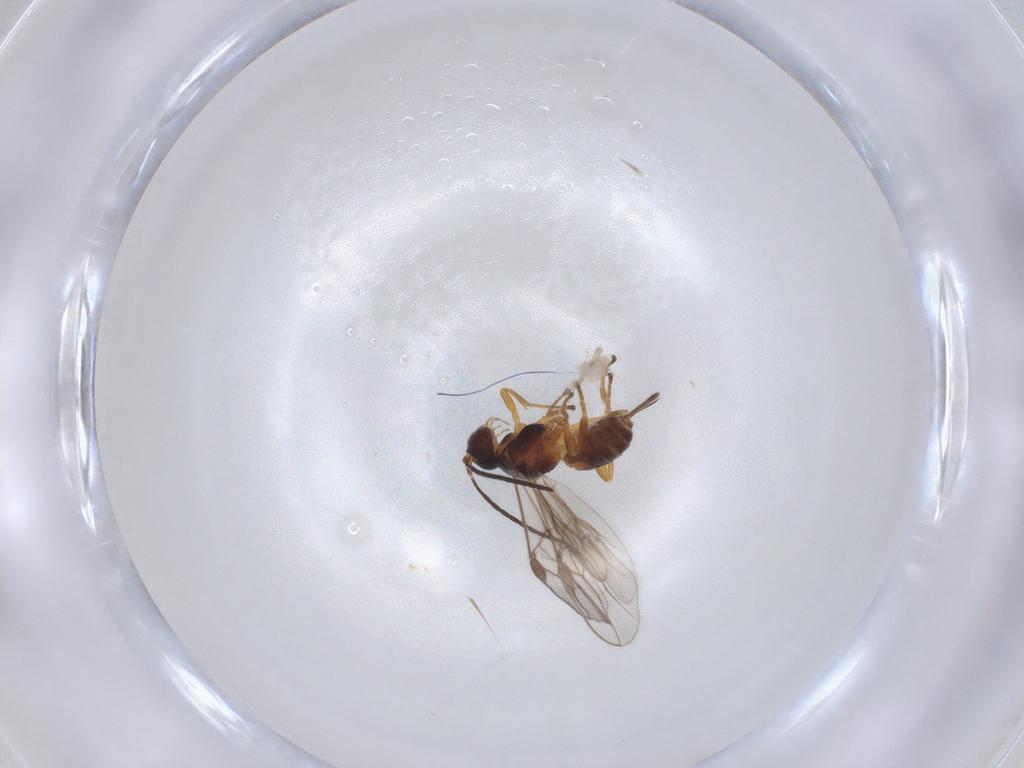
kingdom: Animalia
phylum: Arthropoda
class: Insecta
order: Hymenoptera
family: Braconidae
